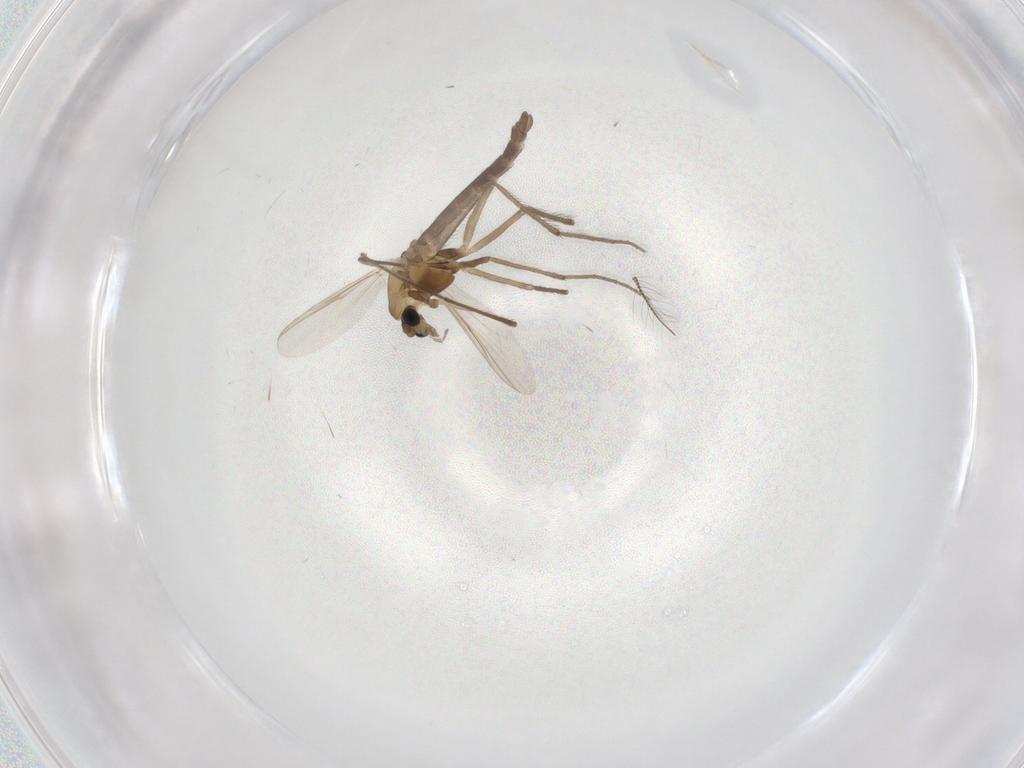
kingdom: Animalia
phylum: Arthropoda
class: Insecta
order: Diptera
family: Chironomidae
